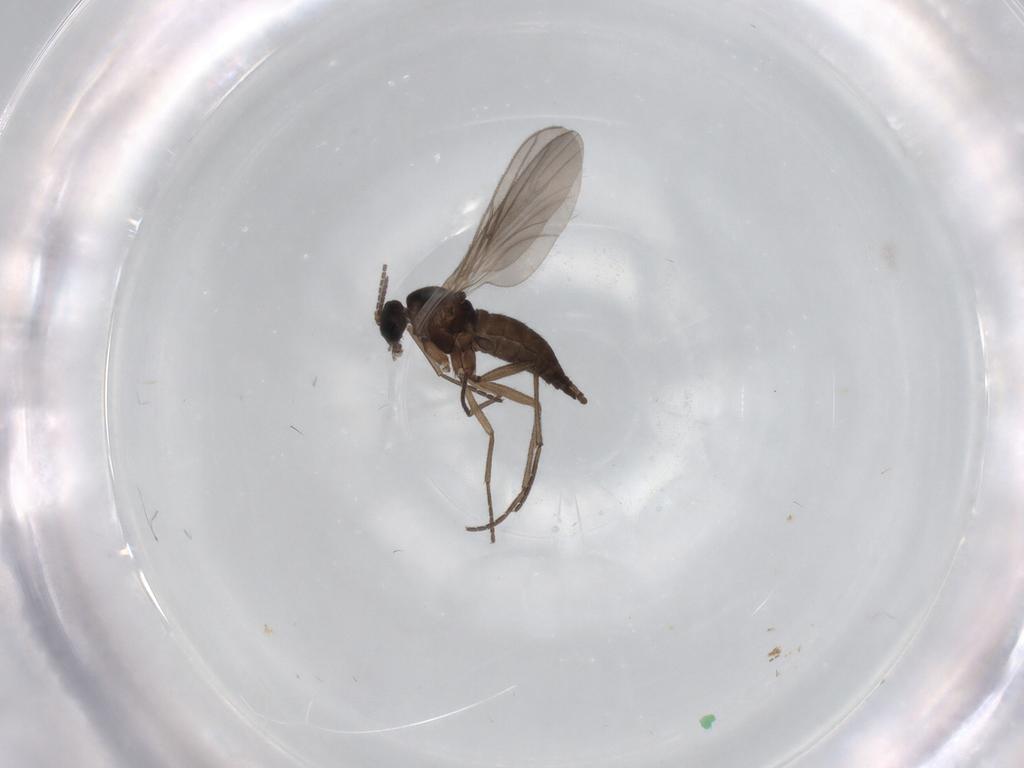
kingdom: Animalia
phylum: Arthropoda
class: Insecta
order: Diptera
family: Sciaridae
